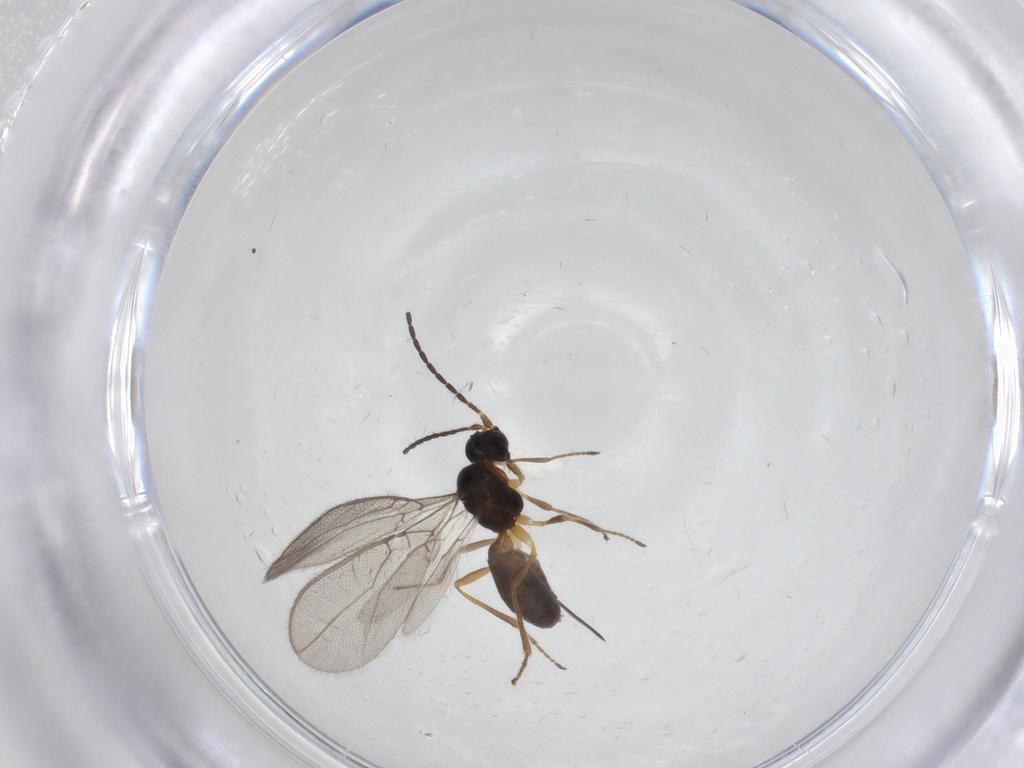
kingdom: Animalia
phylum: Arthropoda
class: Insecta
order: Hymenoptera
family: Braconidae
